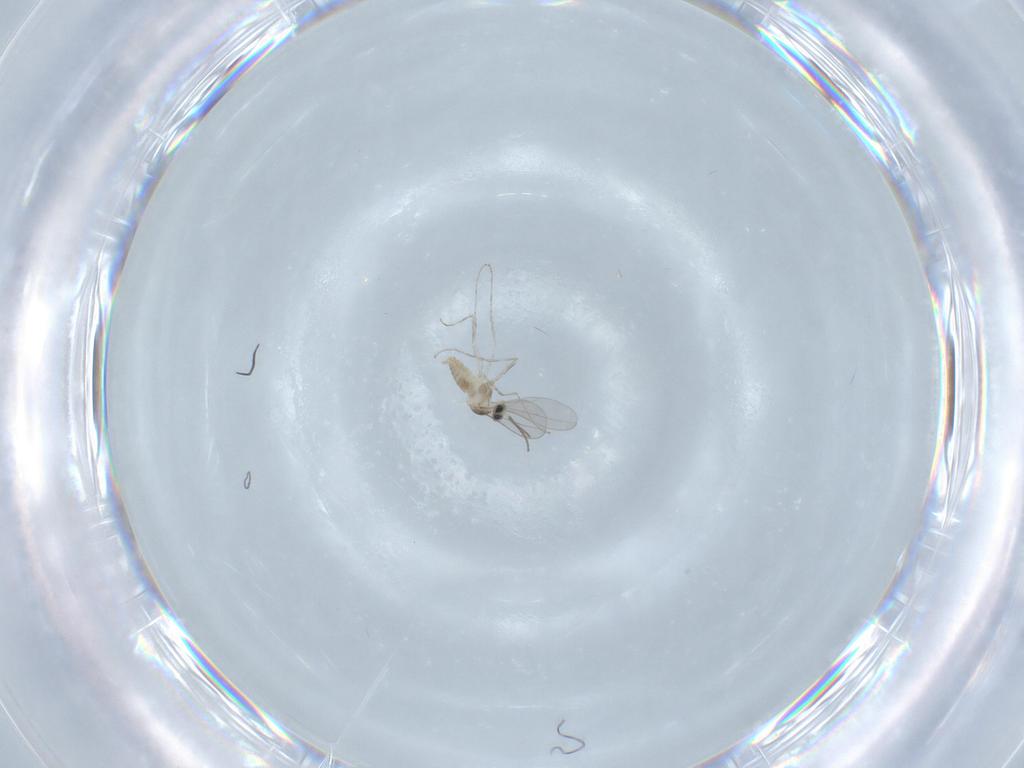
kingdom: Animalia
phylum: Arthropoda
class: Insecta
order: Diptera
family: Cecidomyiidae
